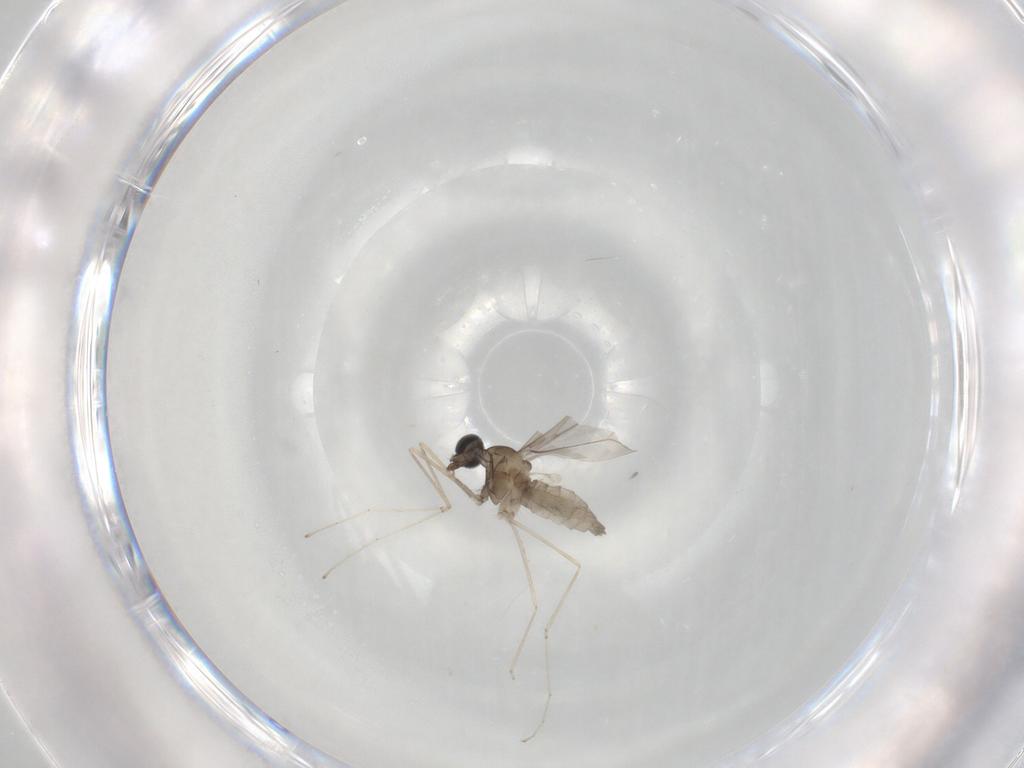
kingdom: Animalia
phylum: Arthropoda
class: Insecta
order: Diptera
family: Cecidomyiidae
